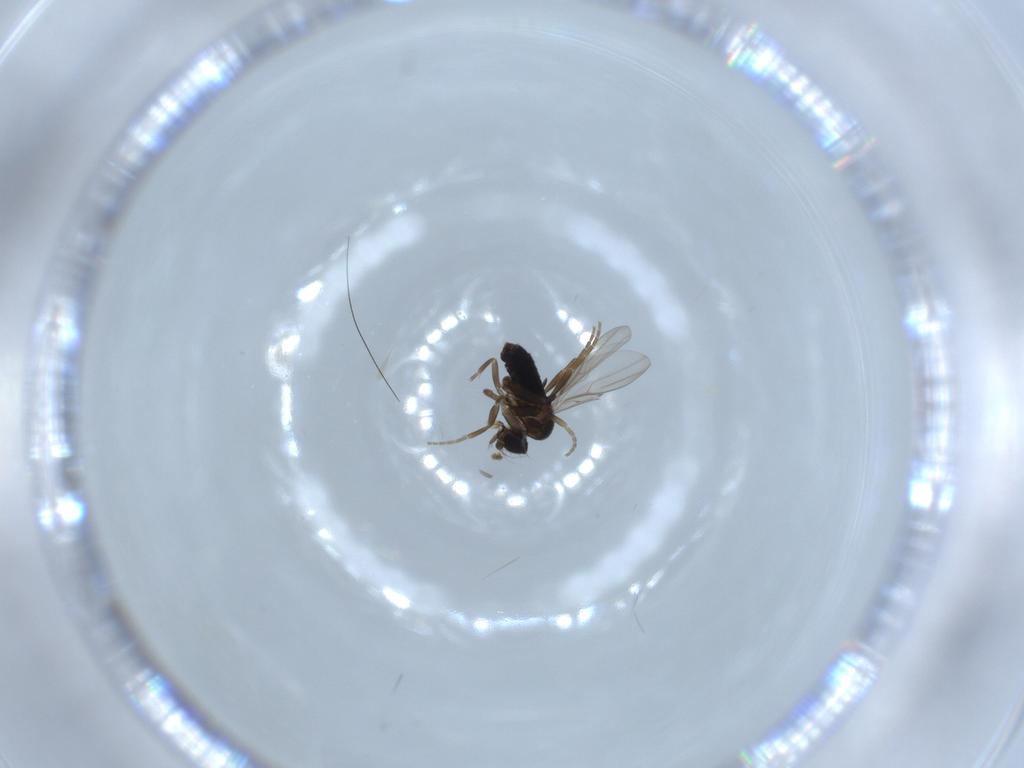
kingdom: Animalia
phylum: Arthropoda
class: Insecta
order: Diptera
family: Phoridae
